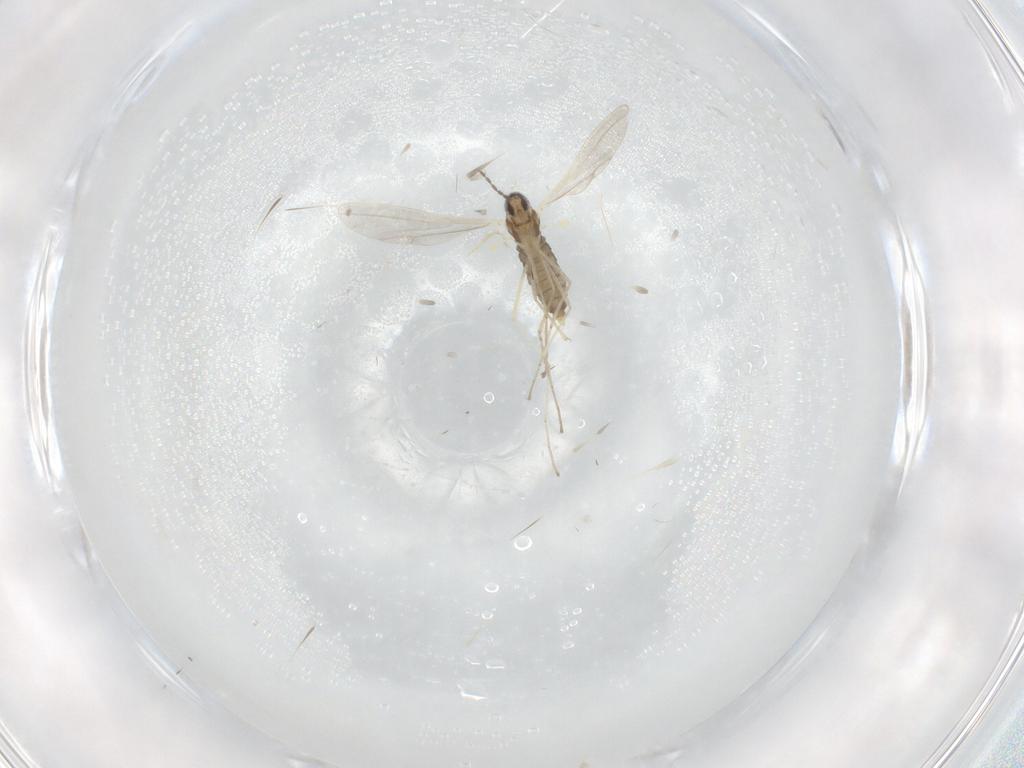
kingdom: Animalia
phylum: Arthropoda
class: Insecta
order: Diptera
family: Cecidomyiidae
